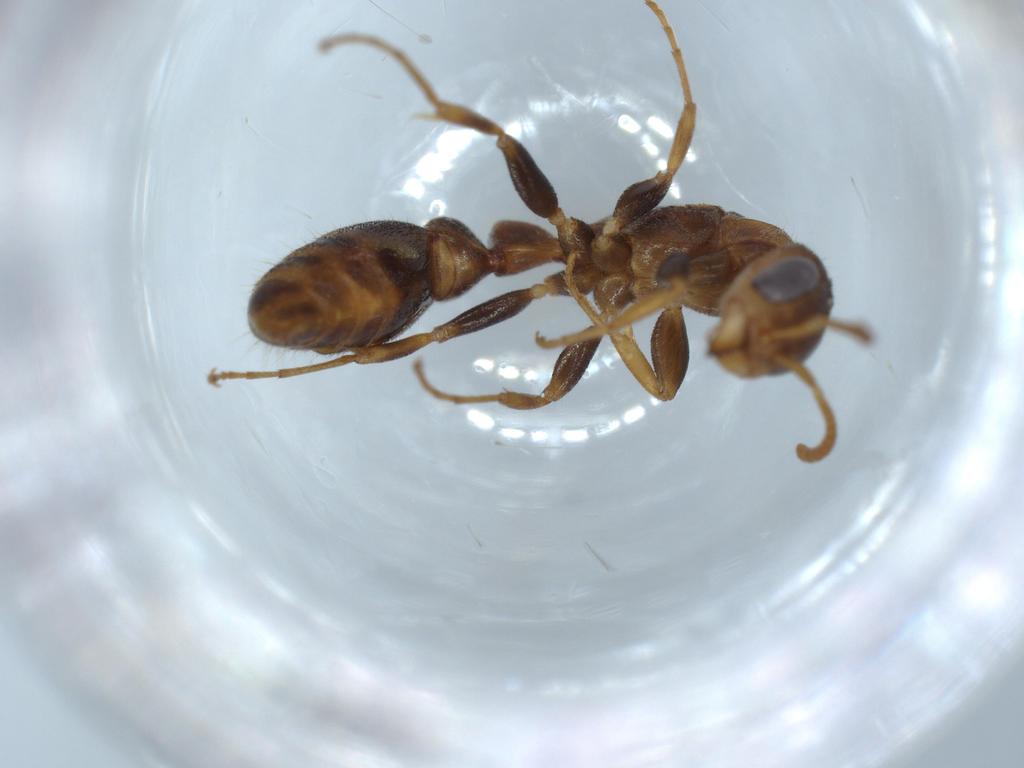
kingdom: Animalia
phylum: Arthropoda
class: Insecta
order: Hymenoptera
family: Formicidae
